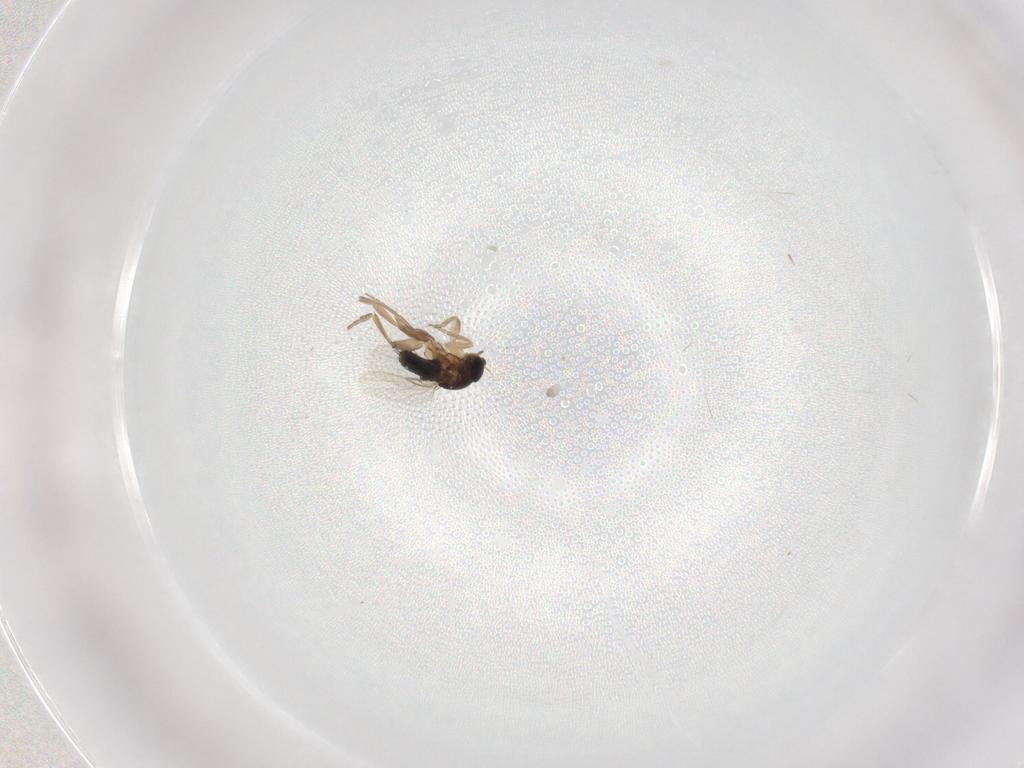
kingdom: Animalia
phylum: Arthropoda
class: Insecta
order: Diptera
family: Phoridae
